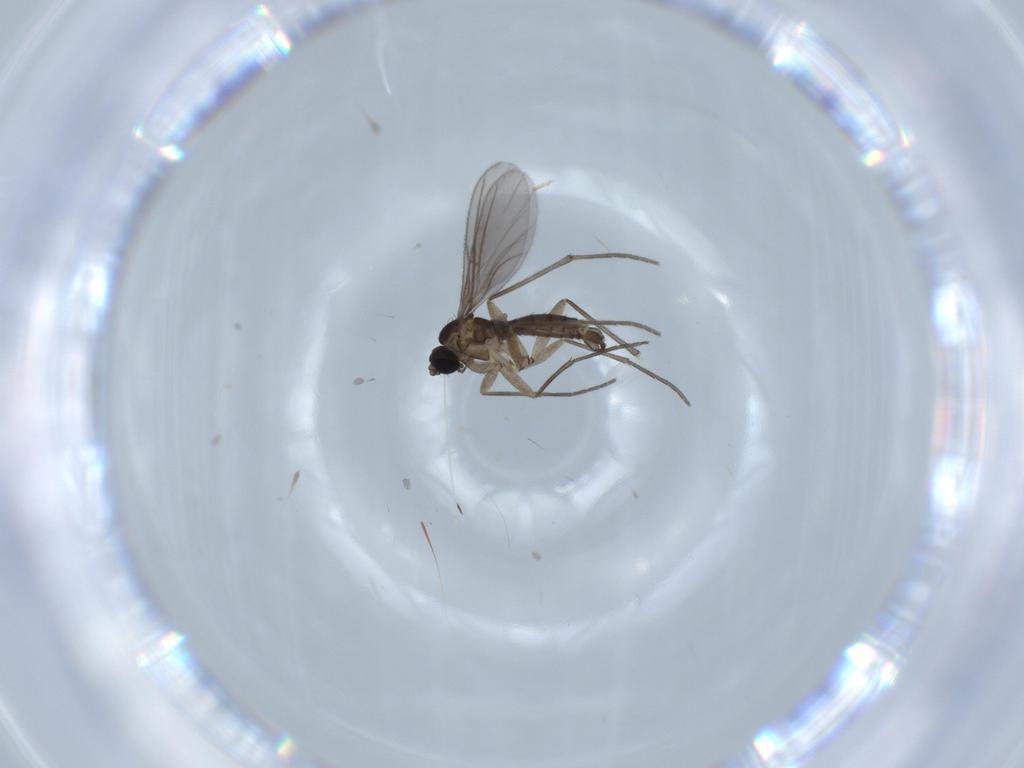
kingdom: Animalia
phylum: Arthropoda
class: Insecta
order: Diptera
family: Sciaridae
